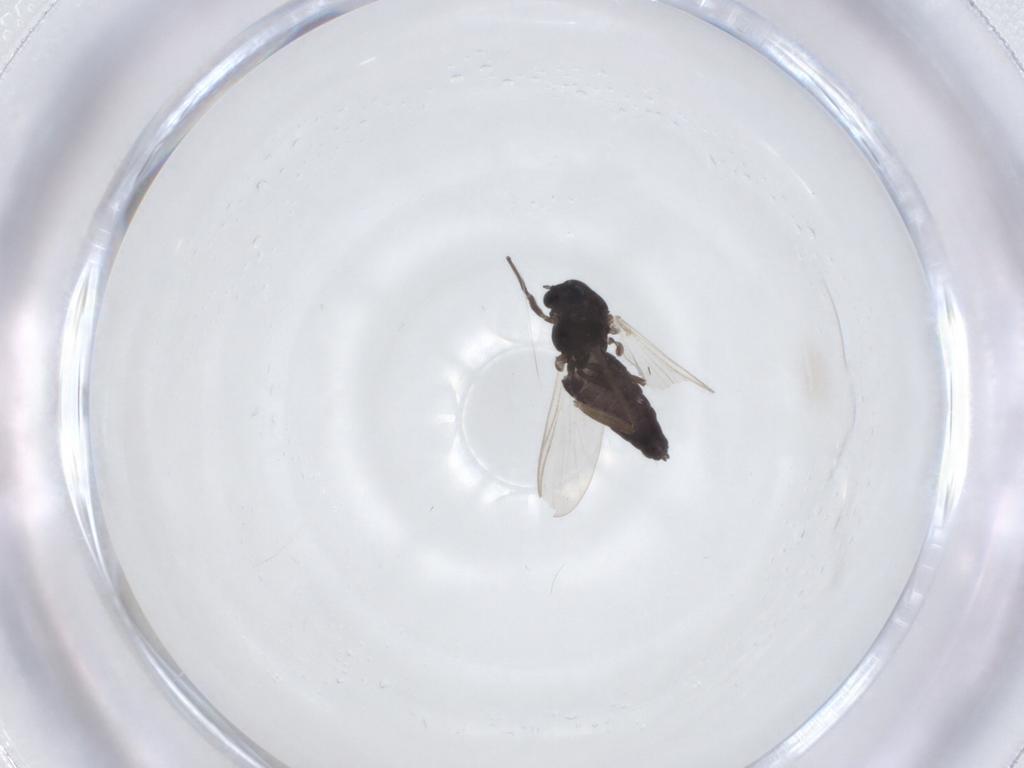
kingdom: Animalia
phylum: Arthropoda
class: Insecta
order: Diptera
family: Chironomidae
